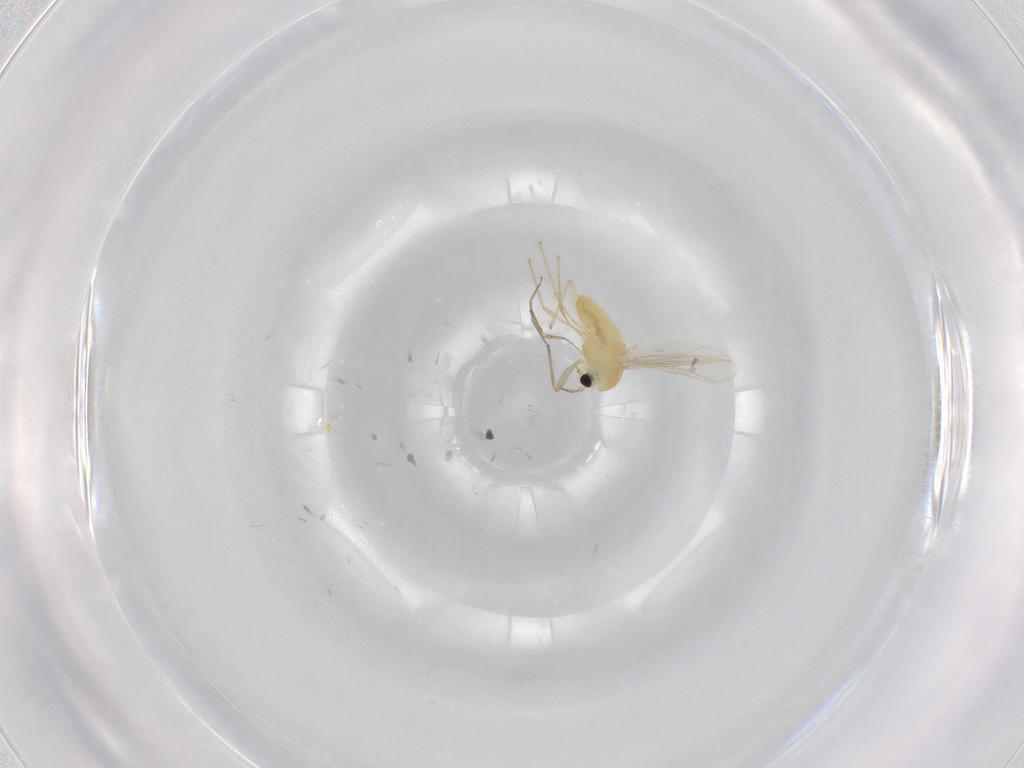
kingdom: Animalia
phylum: Arthropoda
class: Insecta
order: Diptera
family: Chironomidae
